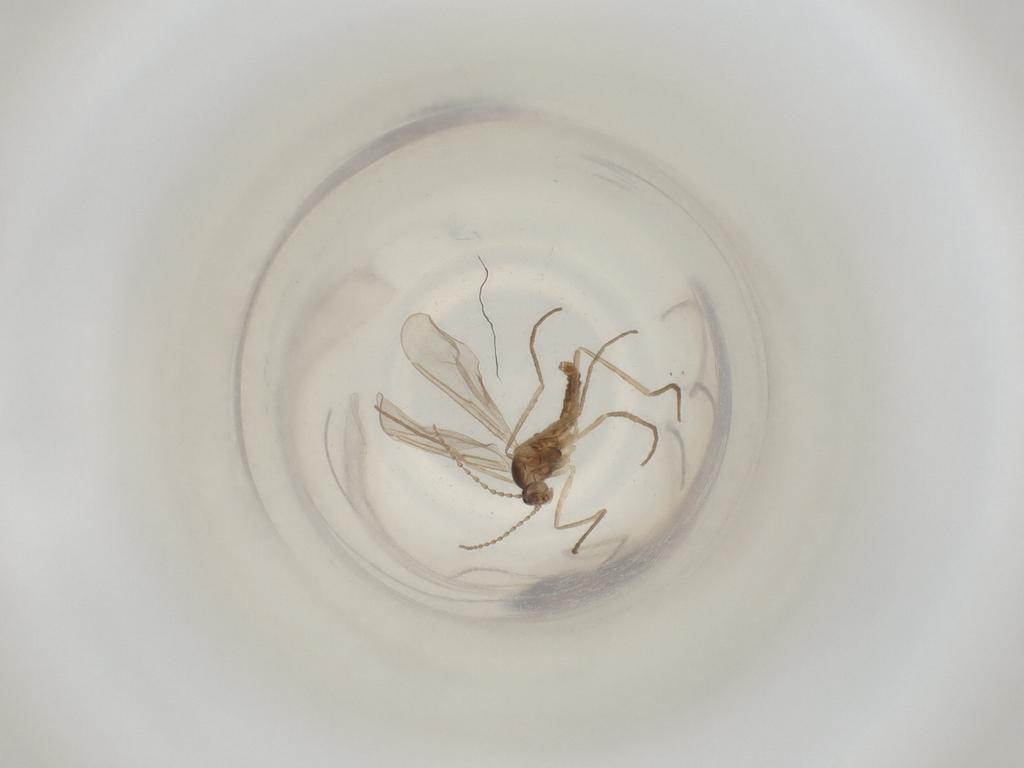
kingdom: Animalia
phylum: Arthropoda
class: Insecta
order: Diptera
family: Cecidomyiidae
